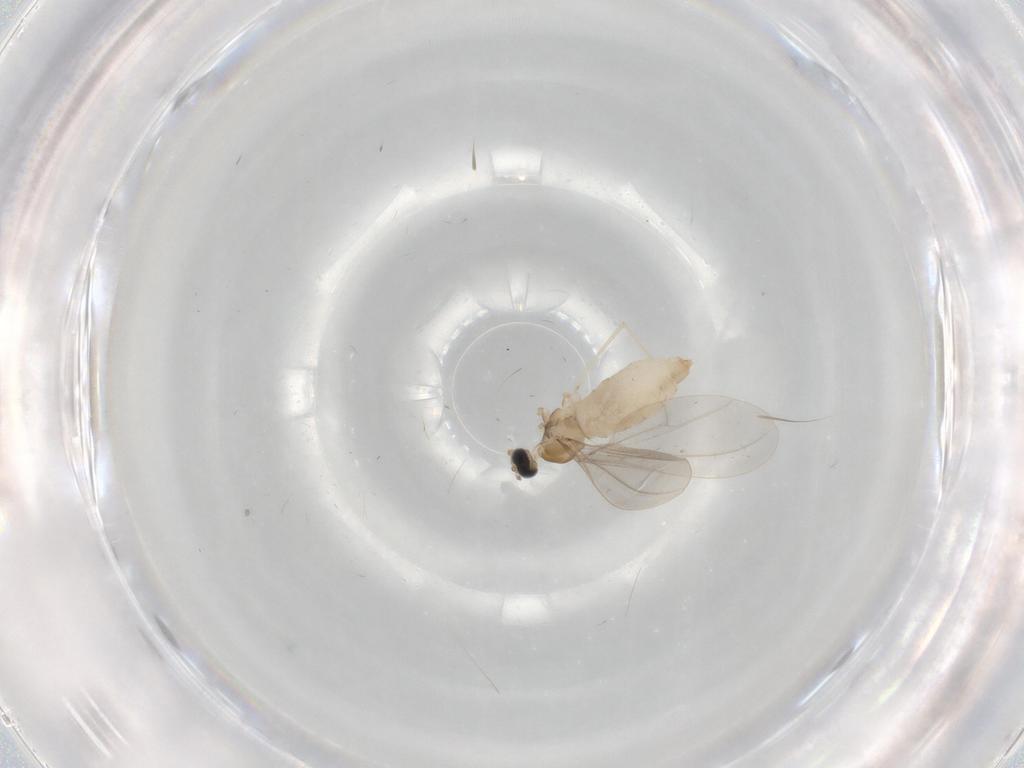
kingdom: Animalia
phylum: Arthropoda
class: Insecta
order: Diptera
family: Cecidomyiidae
